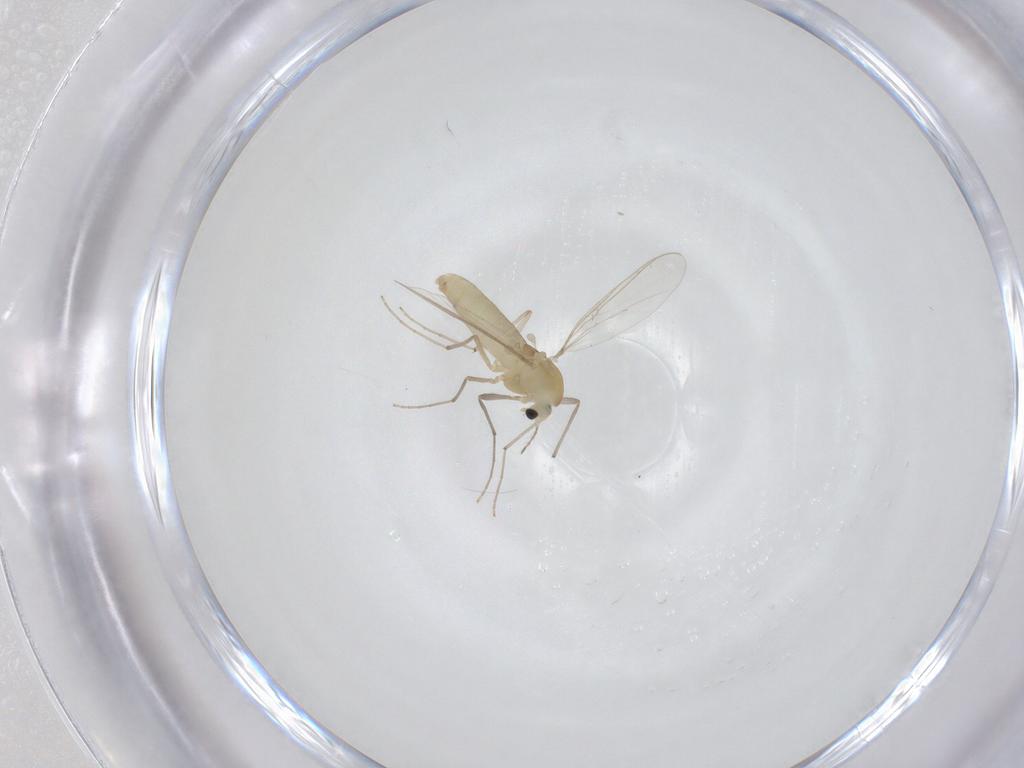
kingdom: Animalia
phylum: Arthropoda
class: Insecta
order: Diptera
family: Chironomidae
